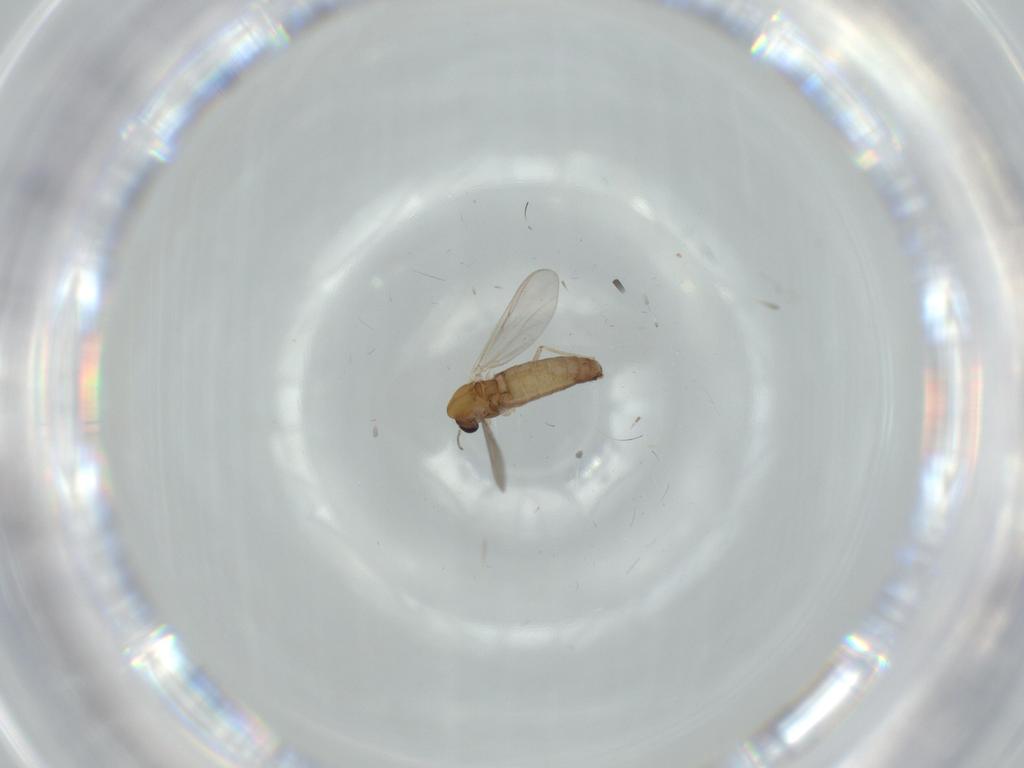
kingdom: Animalia
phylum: Arthropoda
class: Insecta
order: Diptera
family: Chironomidae
